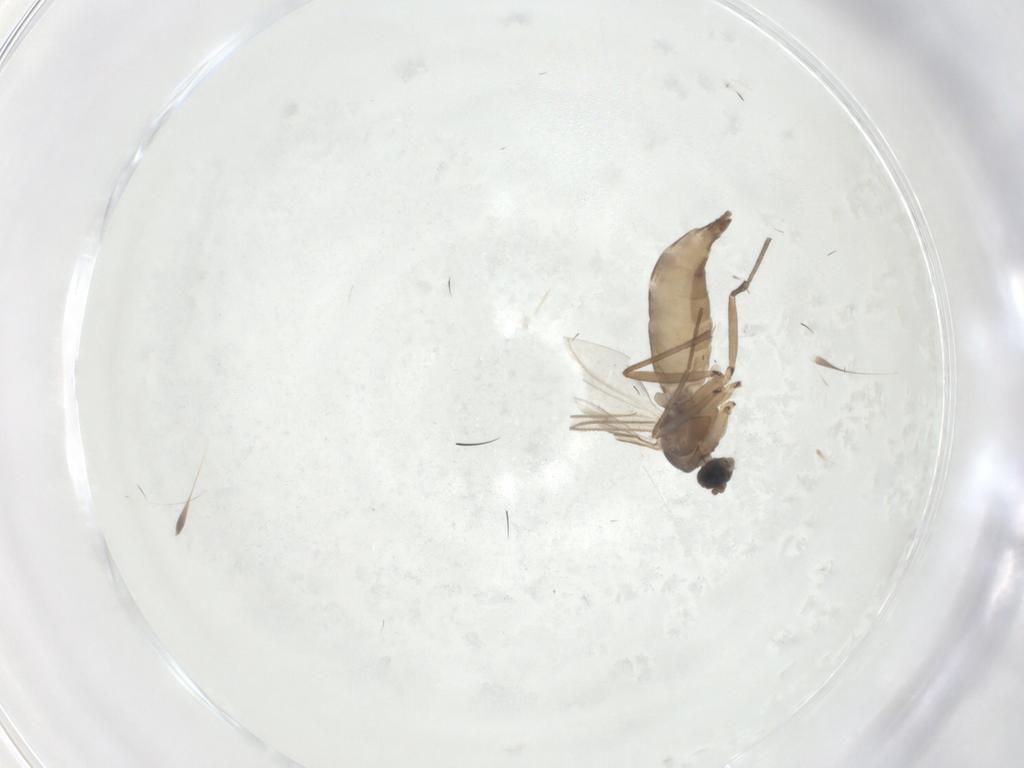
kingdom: Animalia
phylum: Arthropoda
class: Insecta
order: Diptera
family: Sciaridae
